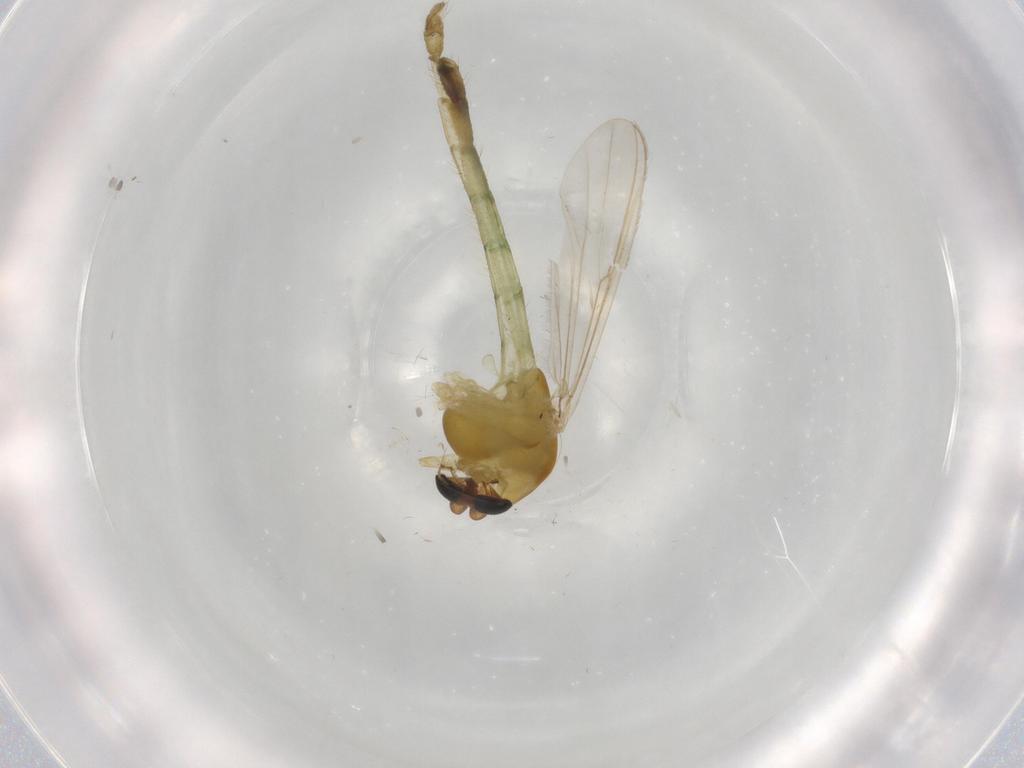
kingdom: Animalia
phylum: Arthropoda
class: Insecta
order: Diptera
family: Chironomidae
